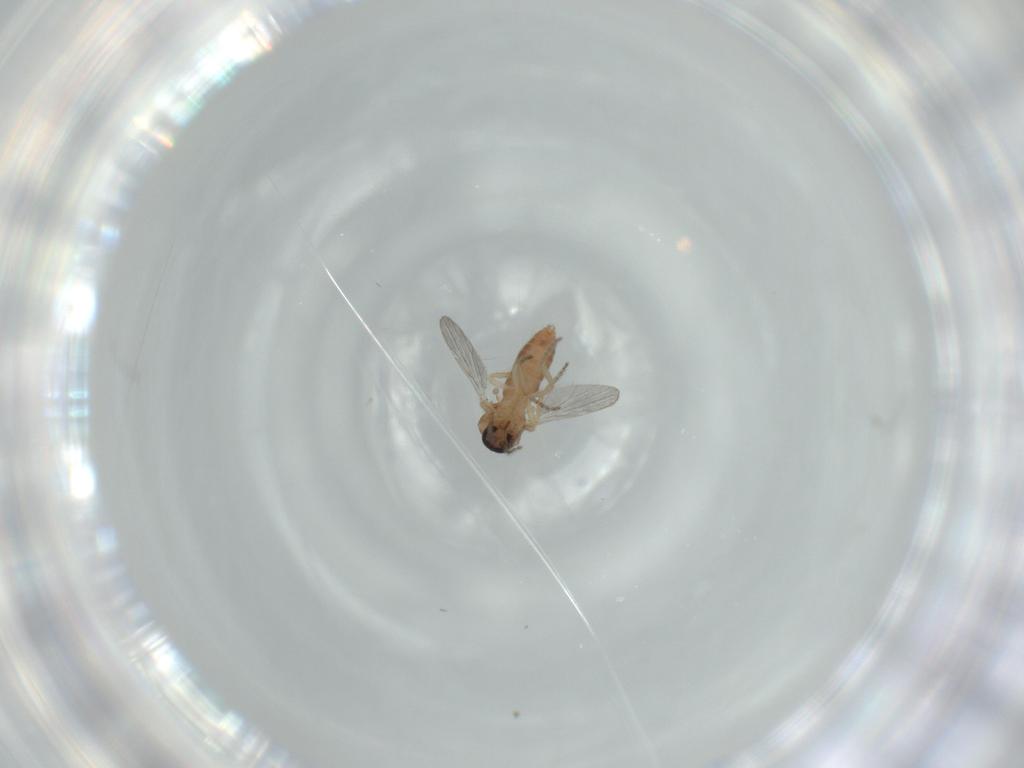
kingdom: Animalia
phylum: Arthropoda
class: Insecta
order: Diptera
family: Ceratopogonidae
